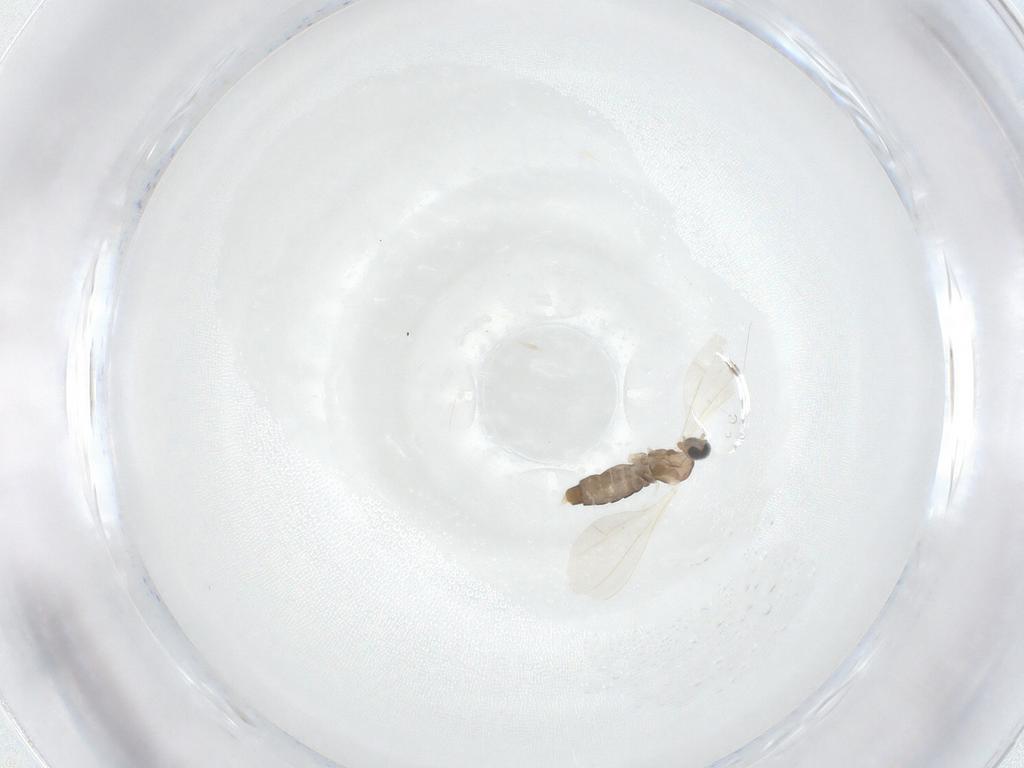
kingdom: Animalia
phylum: Arthropoda
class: Insecta
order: Diptera
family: Cecidomyiidae
